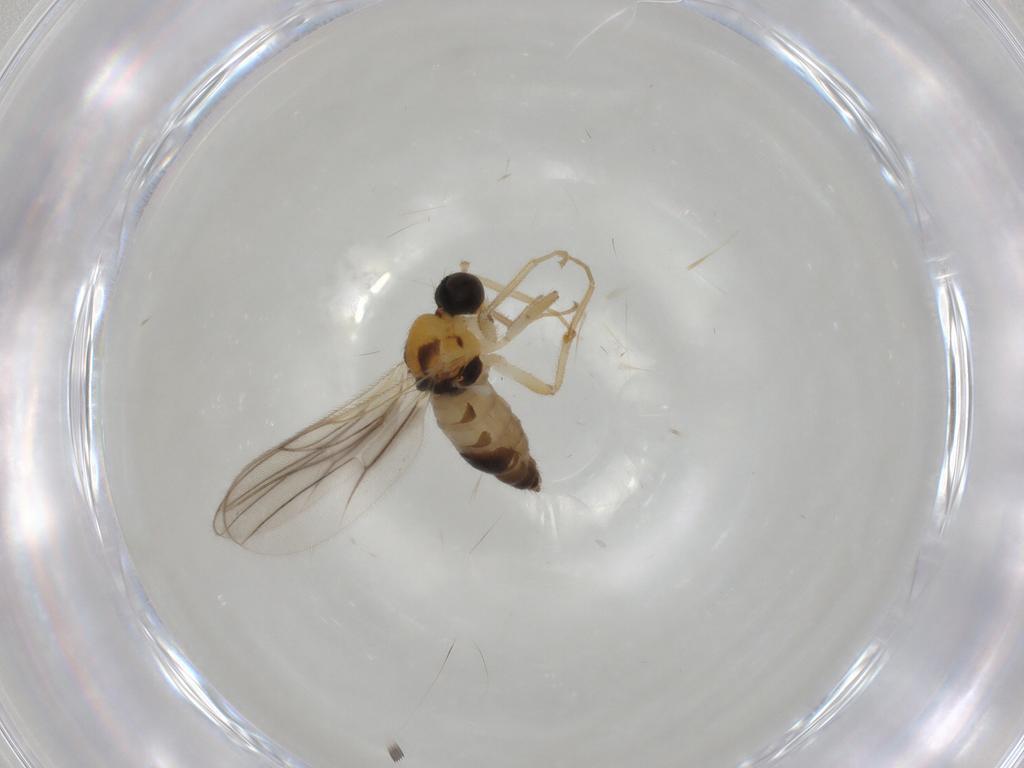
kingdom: Animalia
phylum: Arthropoda
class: Insecta
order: Diptera
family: Hybotidae
